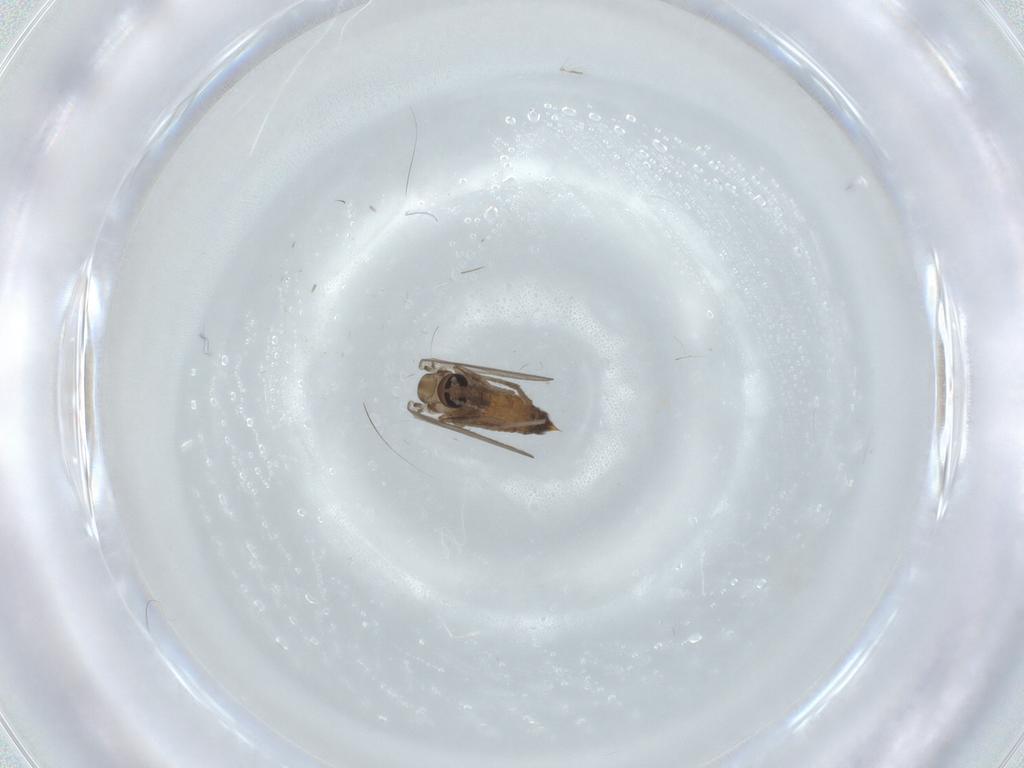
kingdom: Animalia
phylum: Arthropoda
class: Insecta
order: Diptera
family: Psychodidae
